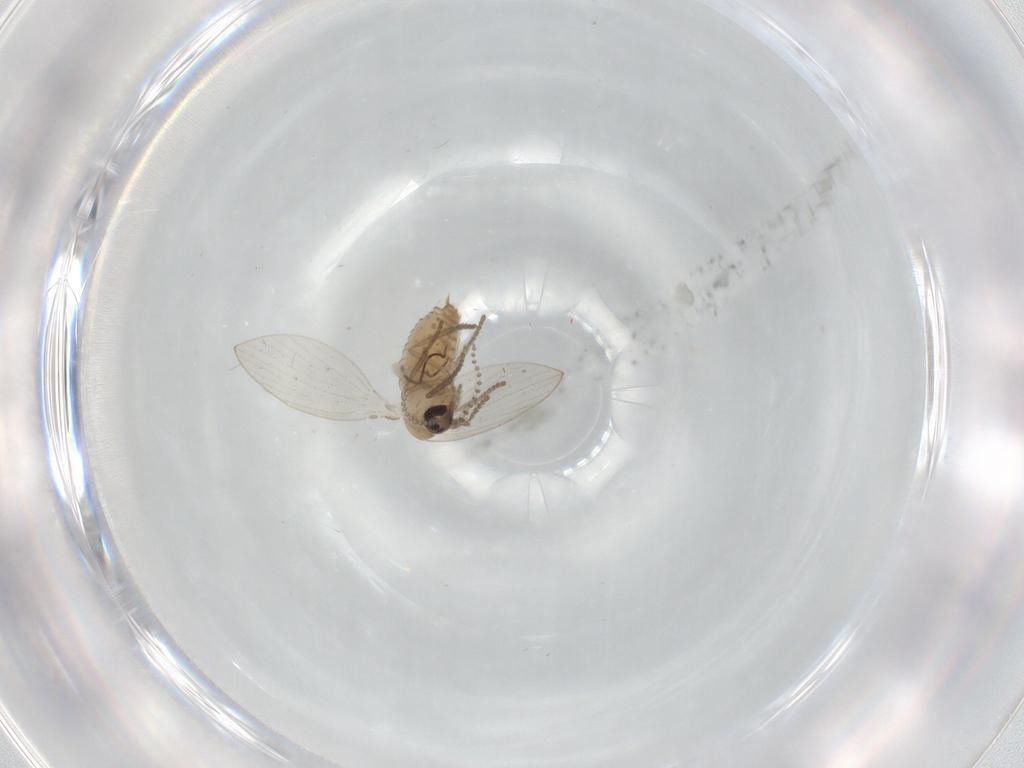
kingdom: Animalia
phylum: Arthropoda
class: Insecta
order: Diptera
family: Psychodidae
